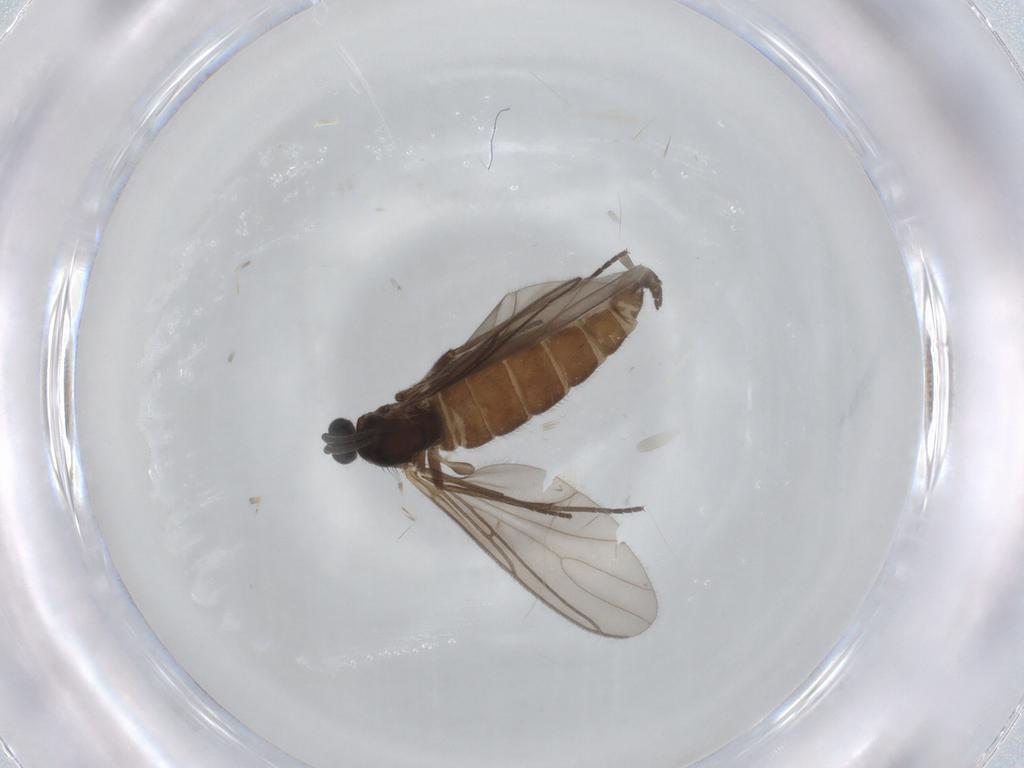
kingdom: Animalia
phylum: Arthropoda
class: Insecta
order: Diptera
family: Sciaridae
